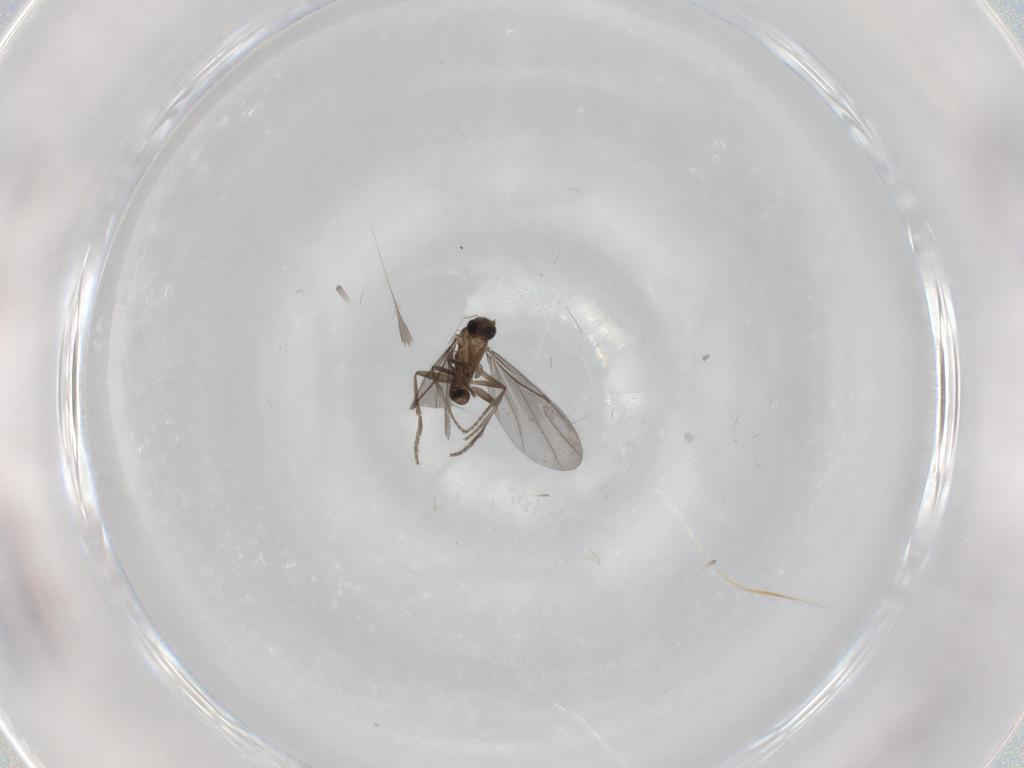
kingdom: Animalia
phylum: Arthropoda
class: Insecta
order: Diptera
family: Phoridae
